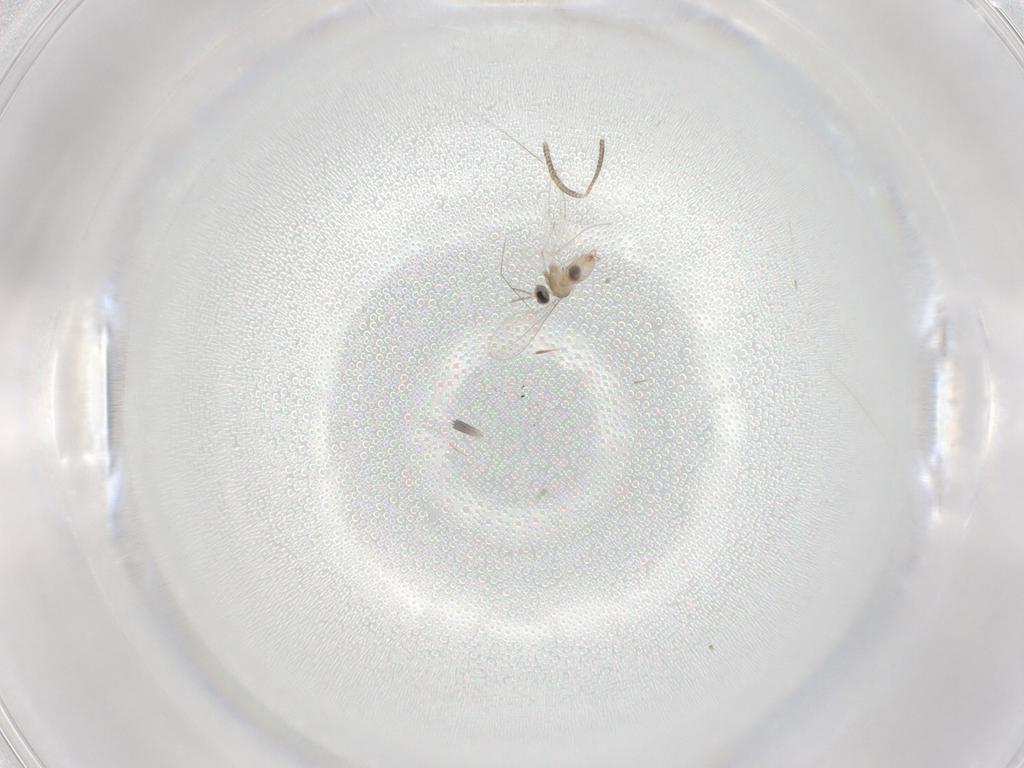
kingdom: Animalia
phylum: Arthropoda
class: Insecta
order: Diptera
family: Cecidomyiidae
